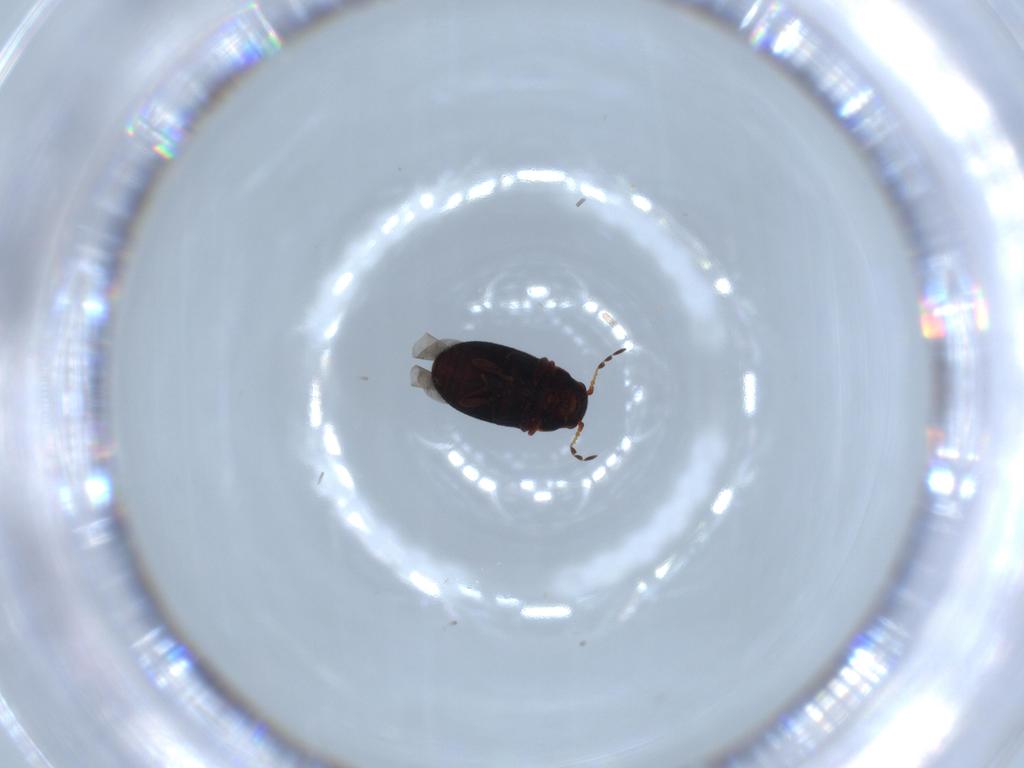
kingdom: Animalia
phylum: Arthropoda
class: Insecta
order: Coleoptera
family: Ptinidae
